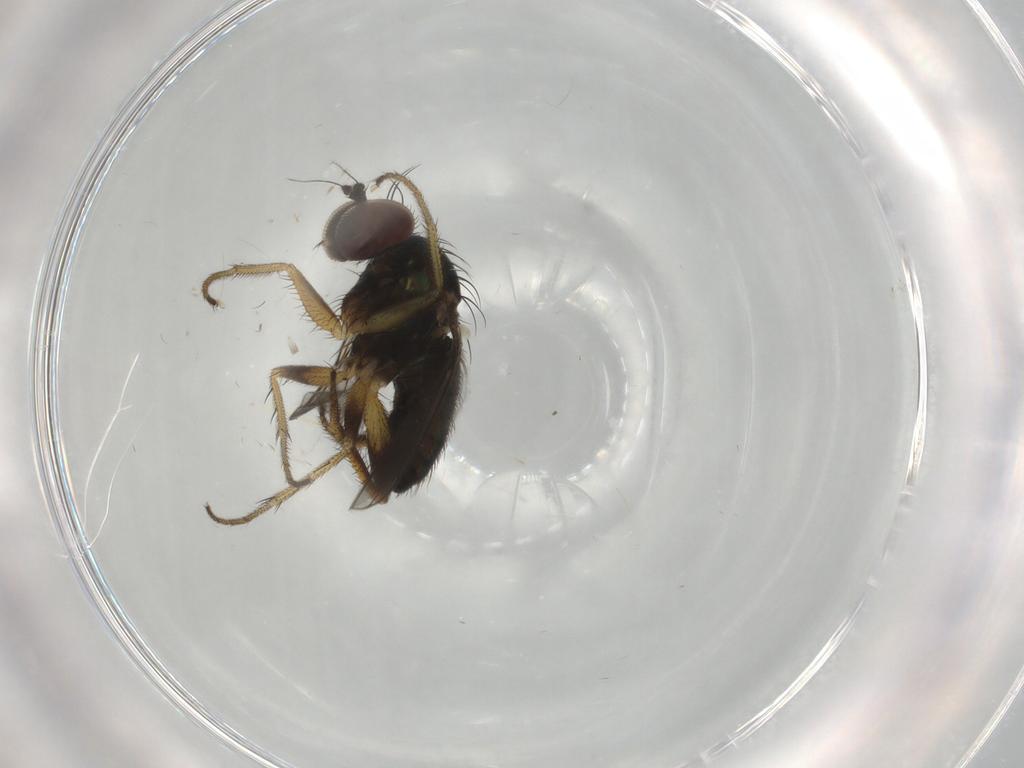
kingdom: Animalia
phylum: Arthropoda
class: Insecta
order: Diptera
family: Dolichopodidae
